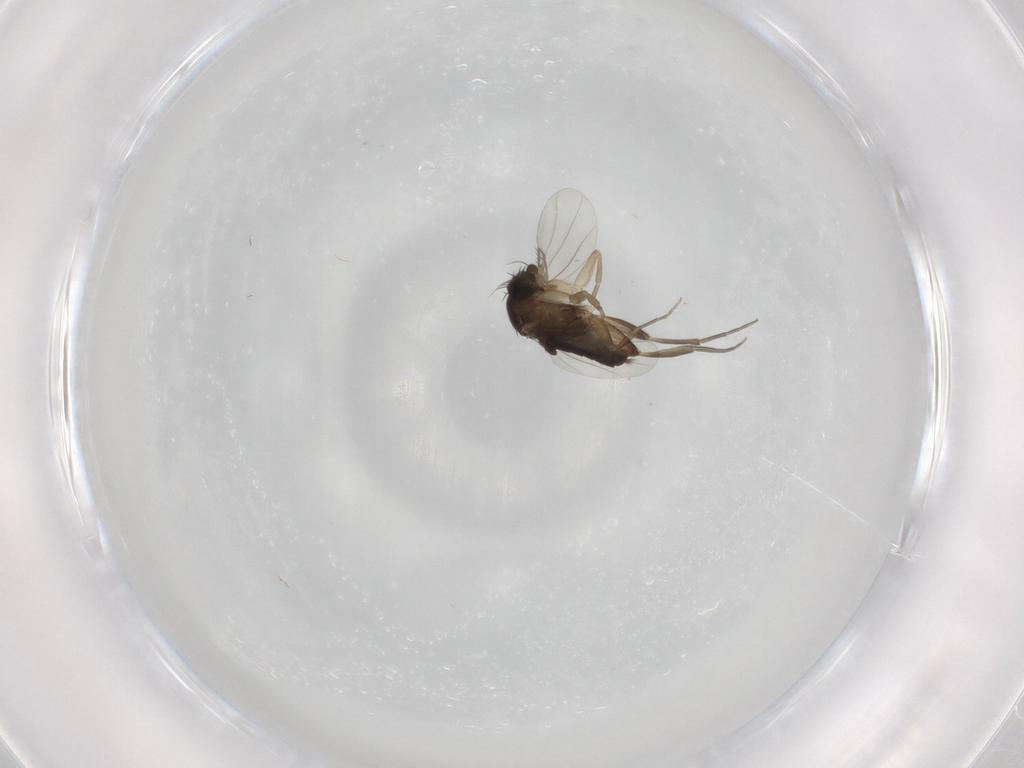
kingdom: Animalia
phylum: Arthropoda
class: Insecta
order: Diptera
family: Phoridae
